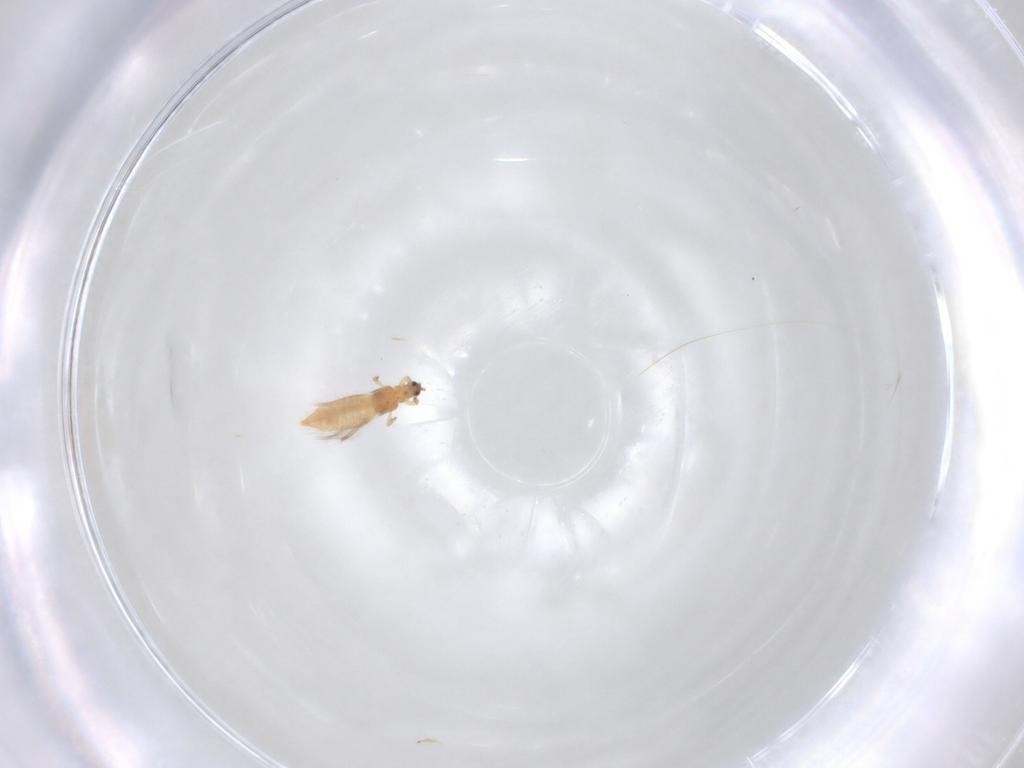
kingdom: Animalia
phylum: Arthropoda
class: Insecta
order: Thysanoptera
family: Thripidae
